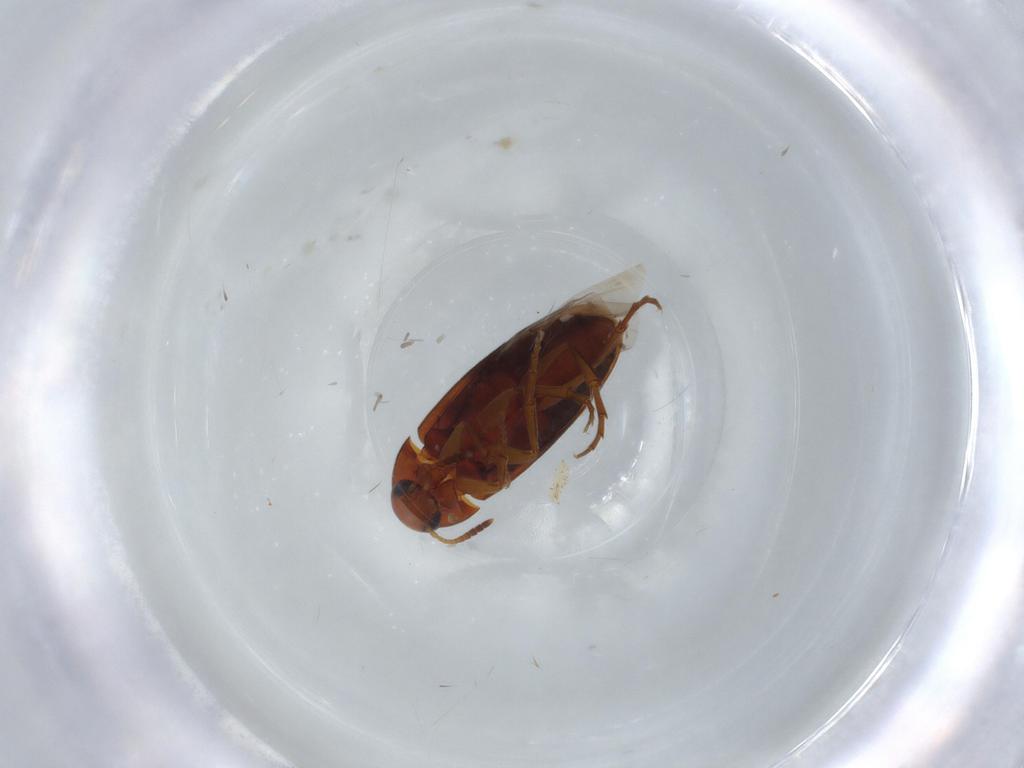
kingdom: Animalia
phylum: Arthropoda
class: Insecta
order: Coleoptera
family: Scraptiidae
